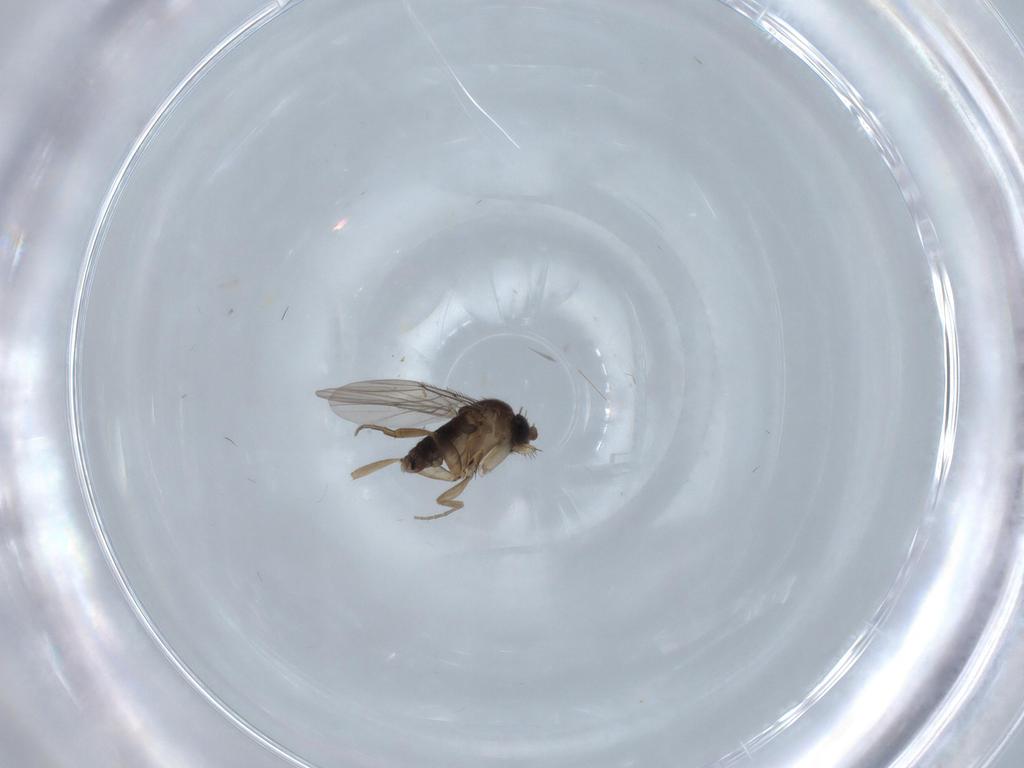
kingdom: Animalia
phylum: Arthropoda
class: Insecta
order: Diptera
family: Phoridae
